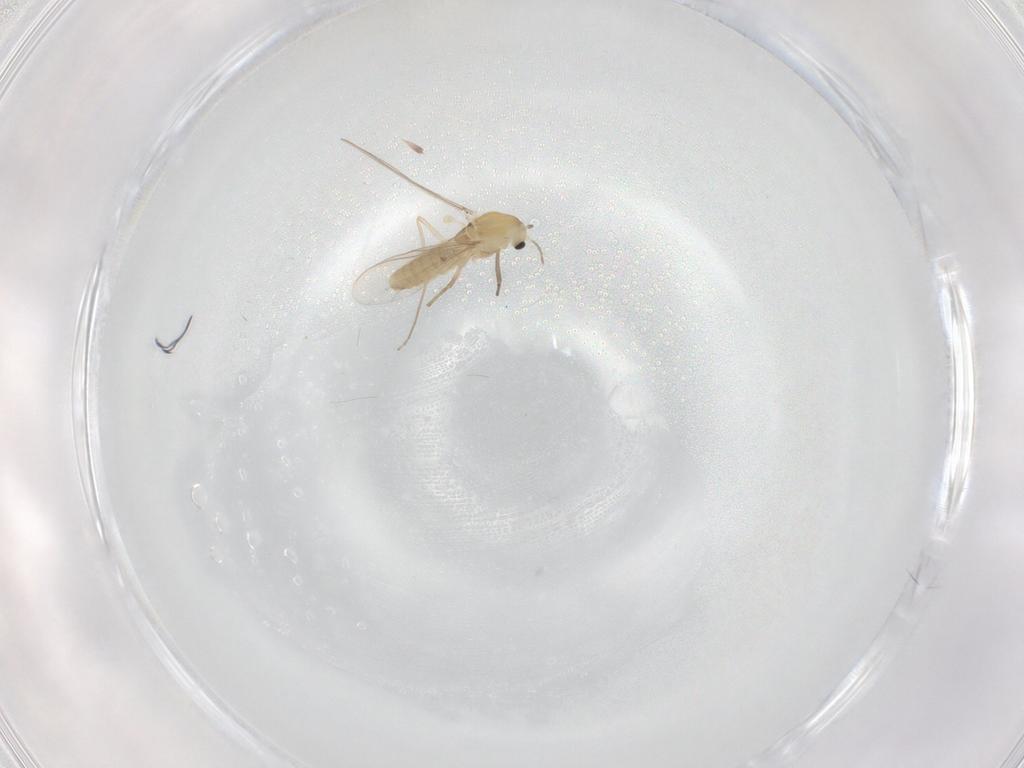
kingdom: Animalia
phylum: Arthropoda
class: Insecta
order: Diptera
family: Chironomidae
